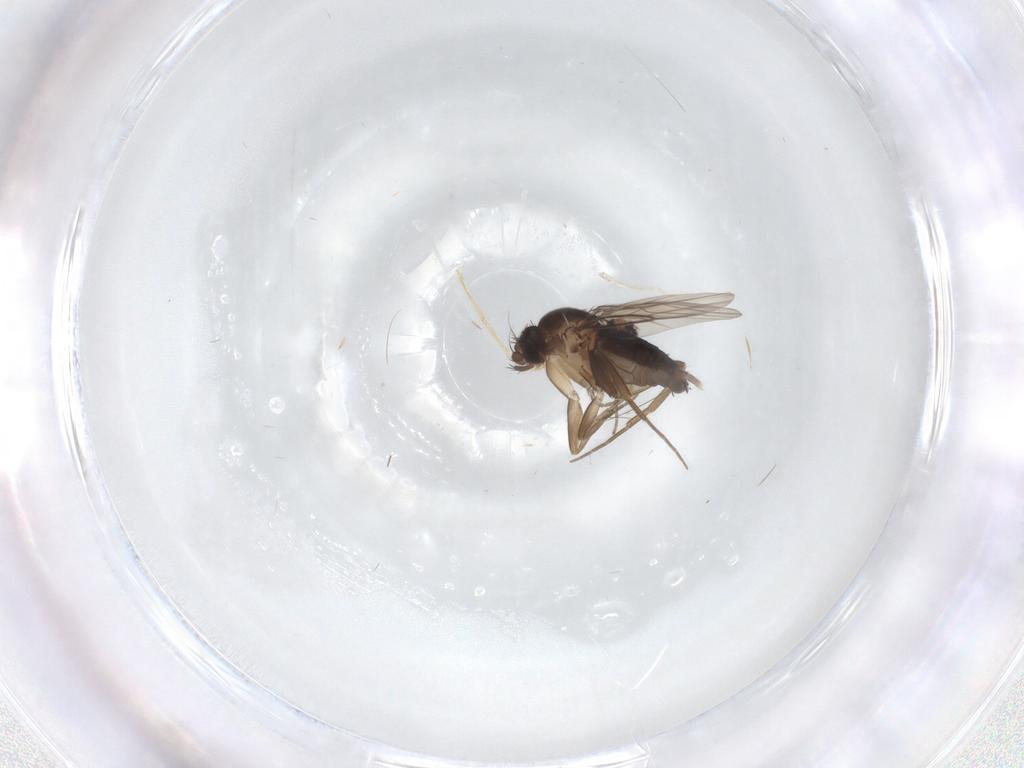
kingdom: Animalia
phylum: Arthropoda
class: Insecta
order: Diptera
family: Phoridae
